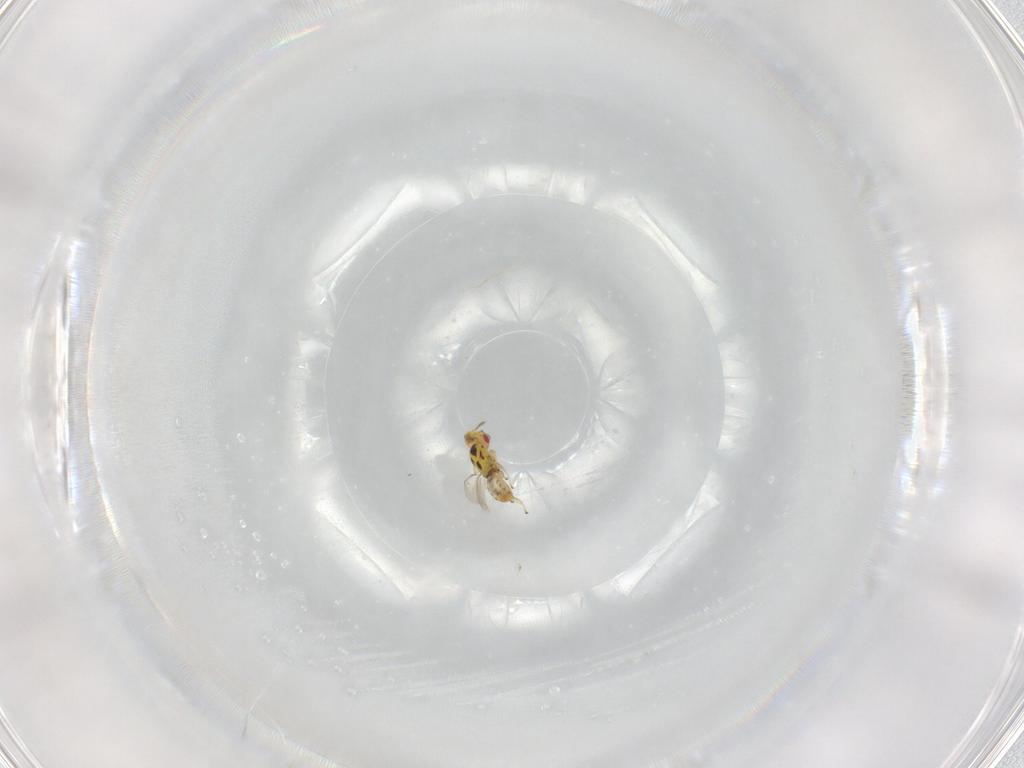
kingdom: Animalia
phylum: Arthropoda
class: Insecta
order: Hymenoptera
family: Eulophidae
